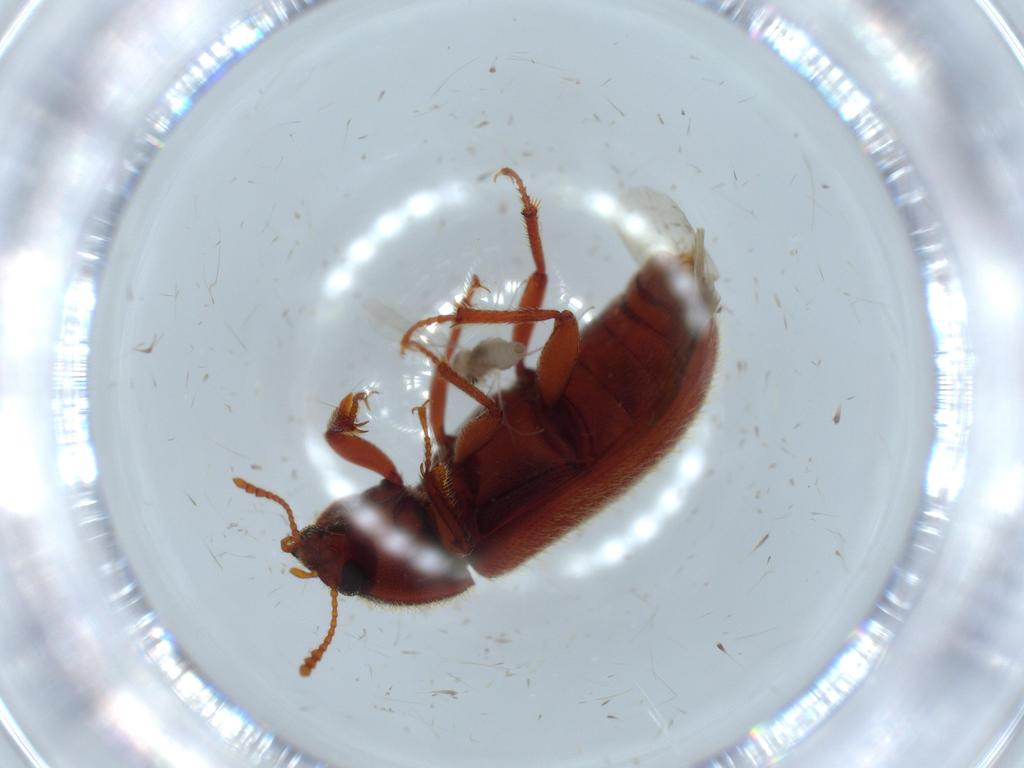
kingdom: Animalia
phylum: Arthropoda
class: Insecta
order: Diptera
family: Cecidomyiidae
